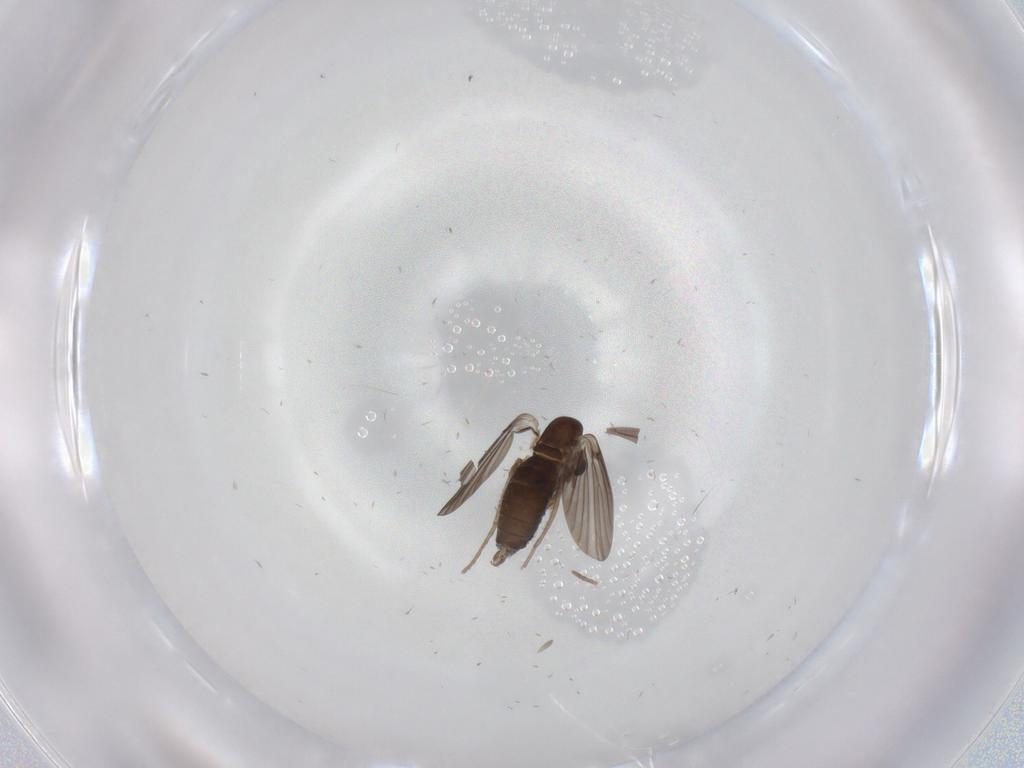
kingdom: Animalia
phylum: Arthropoda
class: Insecta
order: Diptera
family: Fannia
